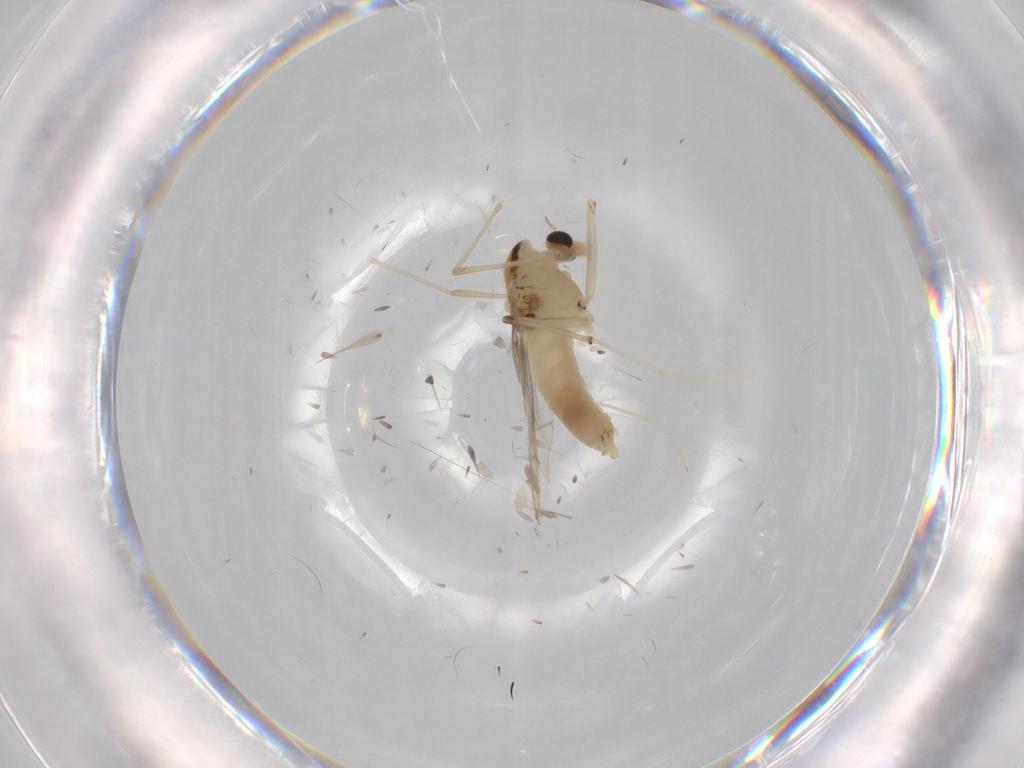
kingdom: Animalia
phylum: Arthropoda
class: Insecta
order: Diptera
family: Chironomidae
